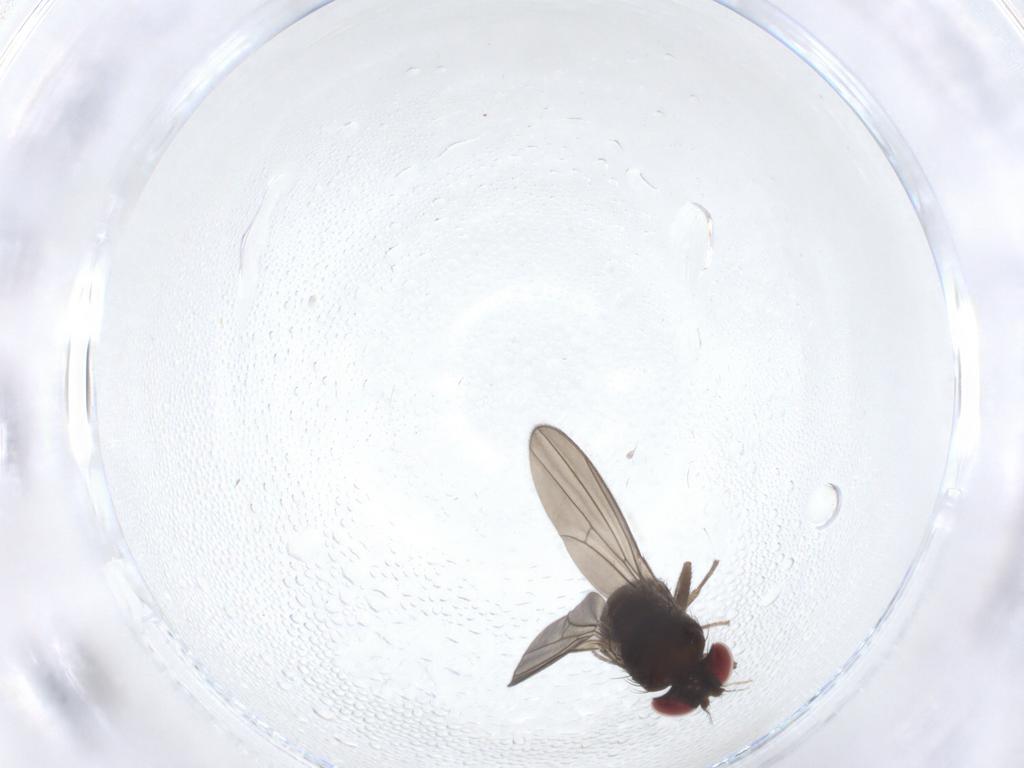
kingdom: Animalia
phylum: Arthropoda
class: Insecta
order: Diptera
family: Drosophilidae
